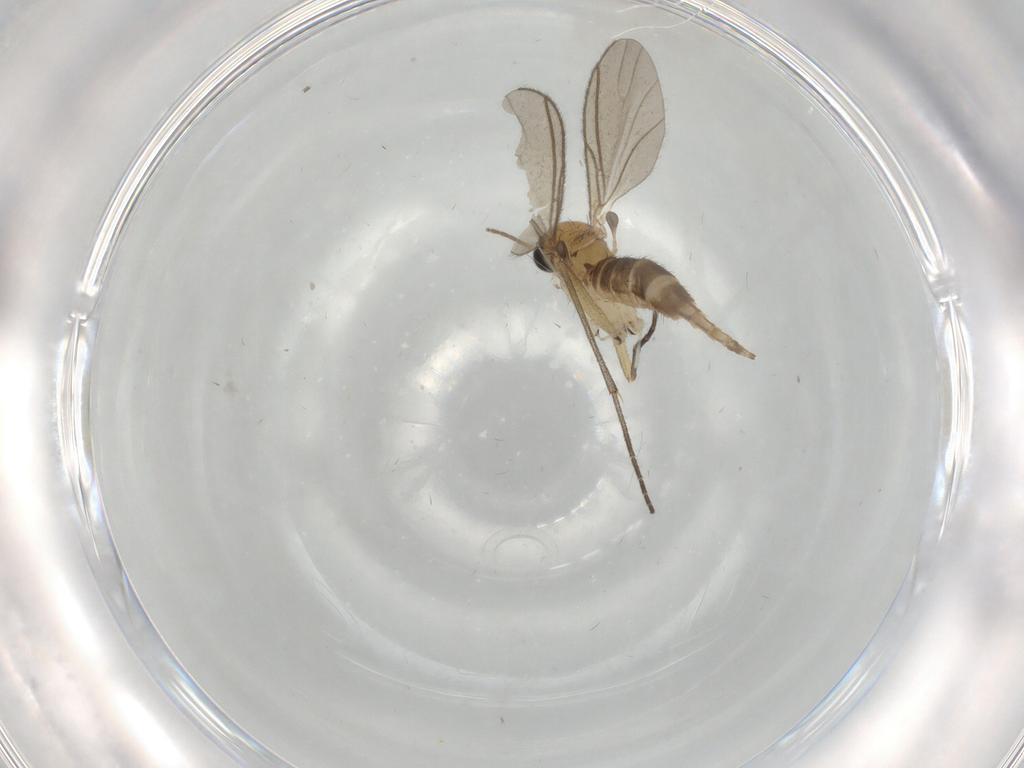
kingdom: Animalia
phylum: Arthropoda
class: Insecta
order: Diptera
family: Sciaridae
